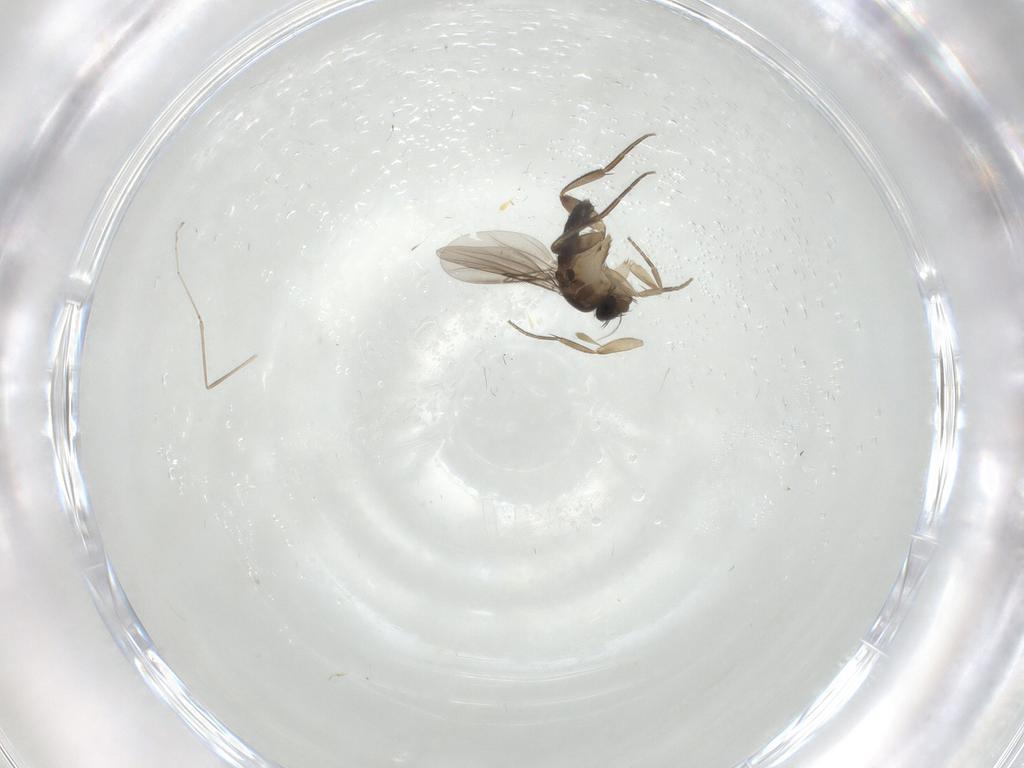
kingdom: Animalia
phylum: Arthropoda
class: Insecta
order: Diptera
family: Phoridae
